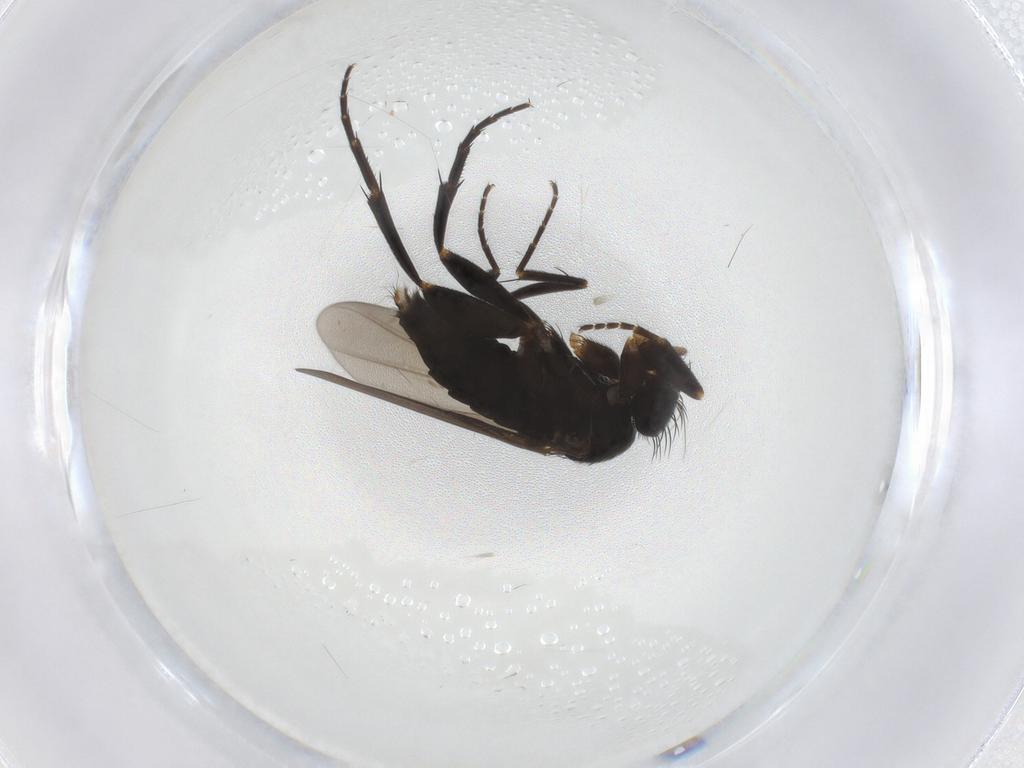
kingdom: Animalia
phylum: Arthropoda
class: Insecta
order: Diptera
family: Phoridae
